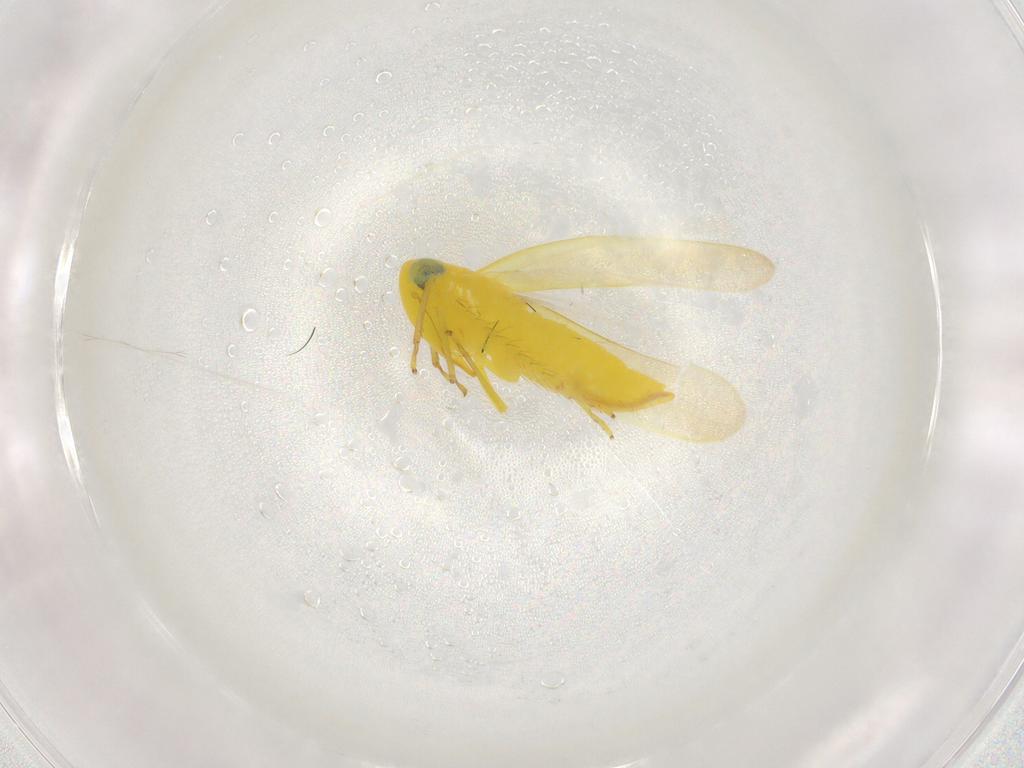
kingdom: Animalia
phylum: Arthropoda
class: Insecta
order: Hemiptera
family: Cicadellidae
